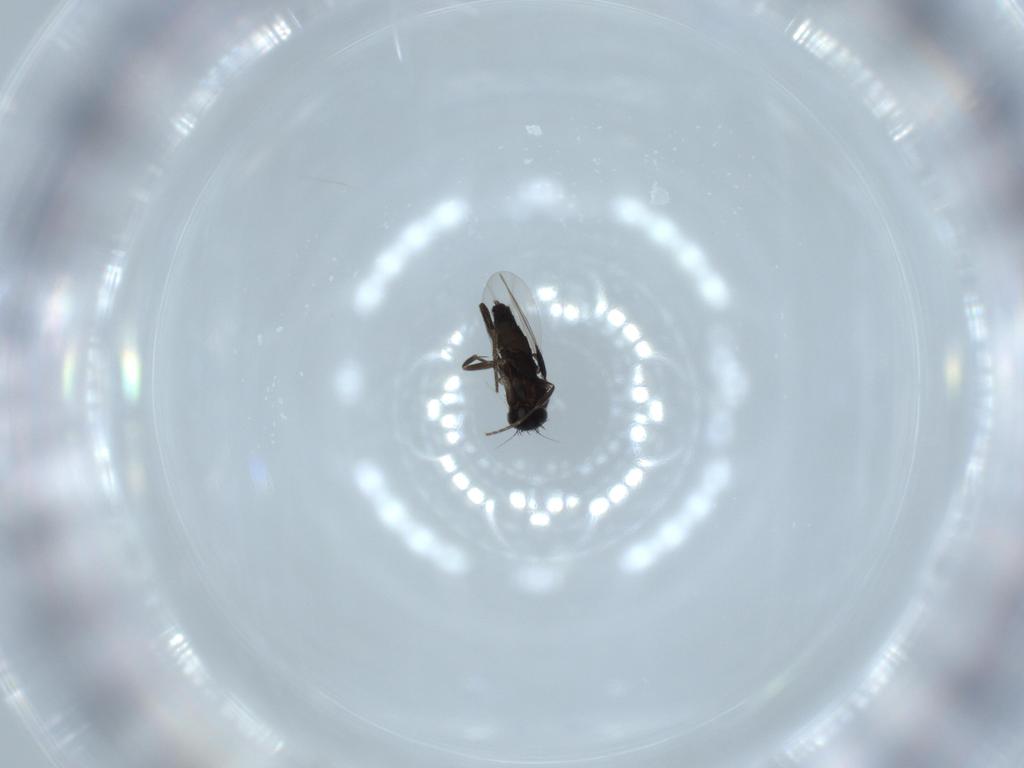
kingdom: Animalia
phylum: Arthropoda
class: Insecta
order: Diptera
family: Phoridae
